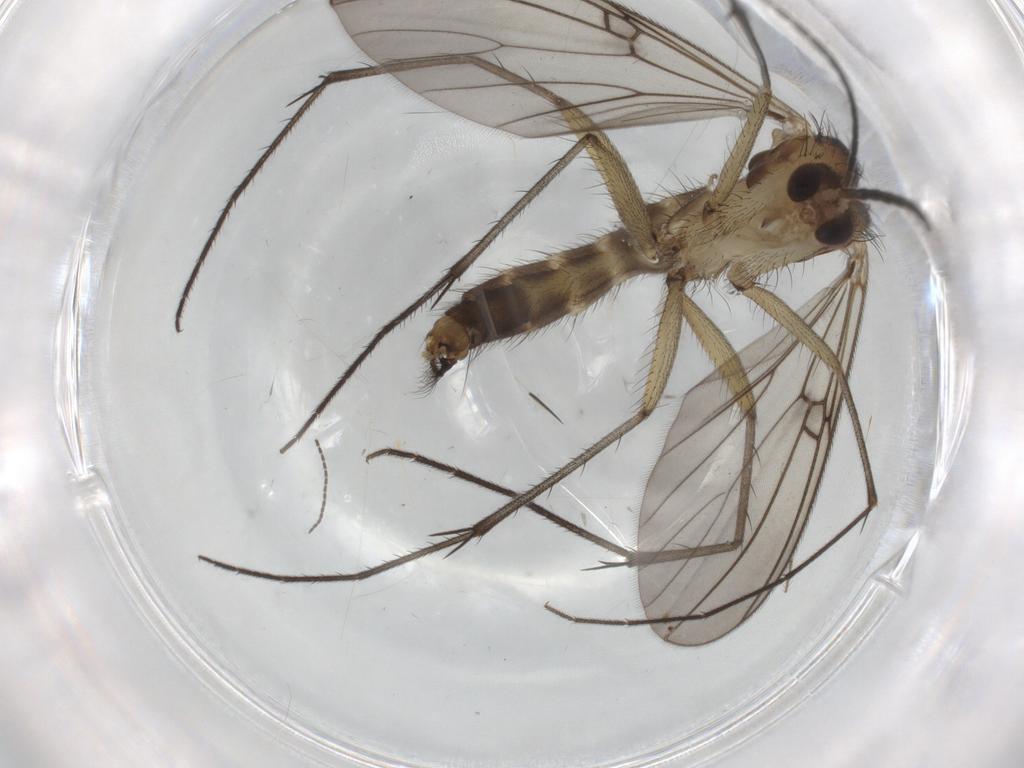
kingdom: Animalia
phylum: Arthropoda
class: Insecta
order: Diptera
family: Mycetophilidae
